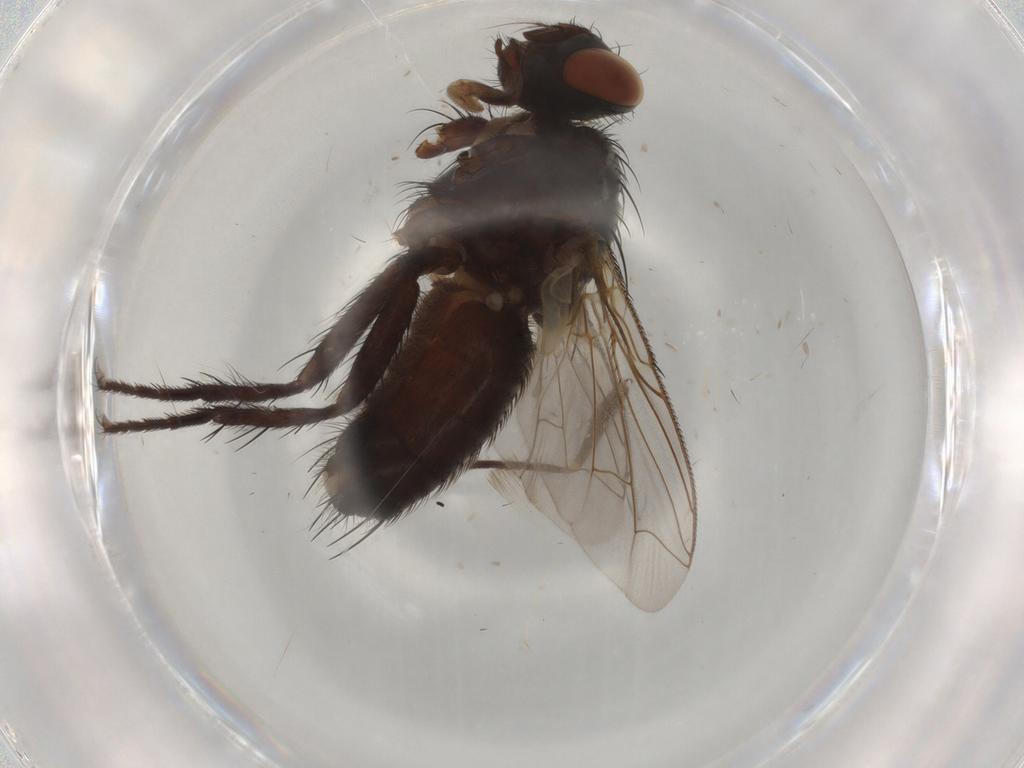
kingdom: Animalia
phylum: Arthropoda
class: Insecta
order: Diptera
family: Sarcophagidae
